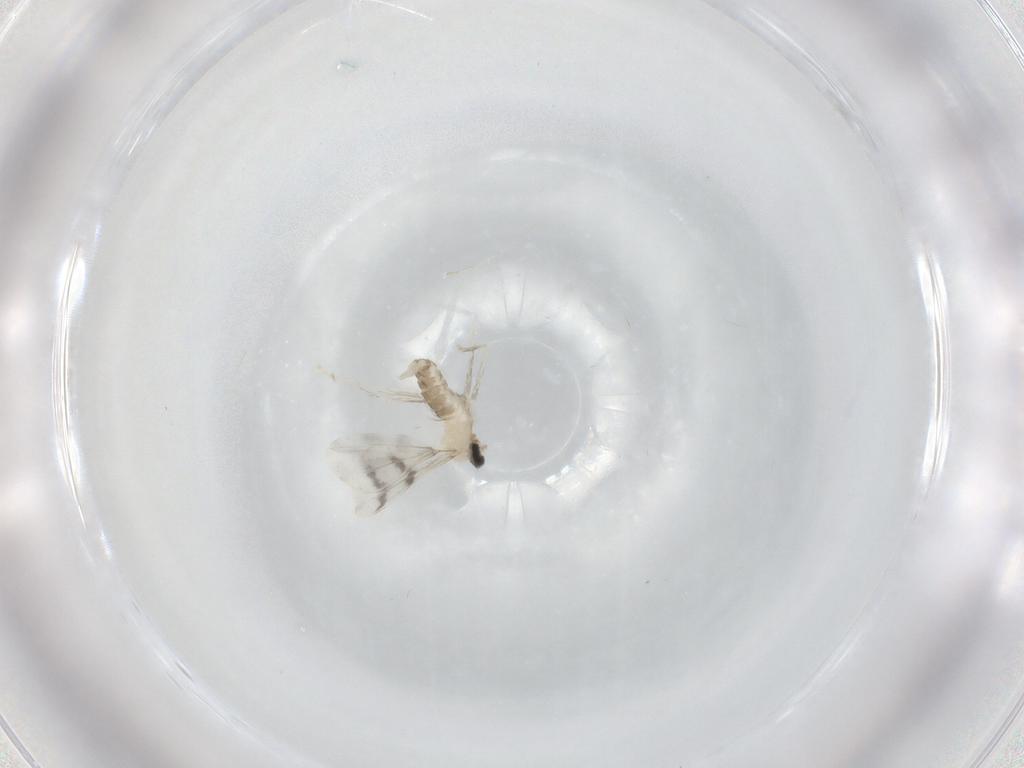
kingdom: Animalia
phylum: Arthropoda
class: Insecta
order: Diptera
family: Cecidomyiidae
